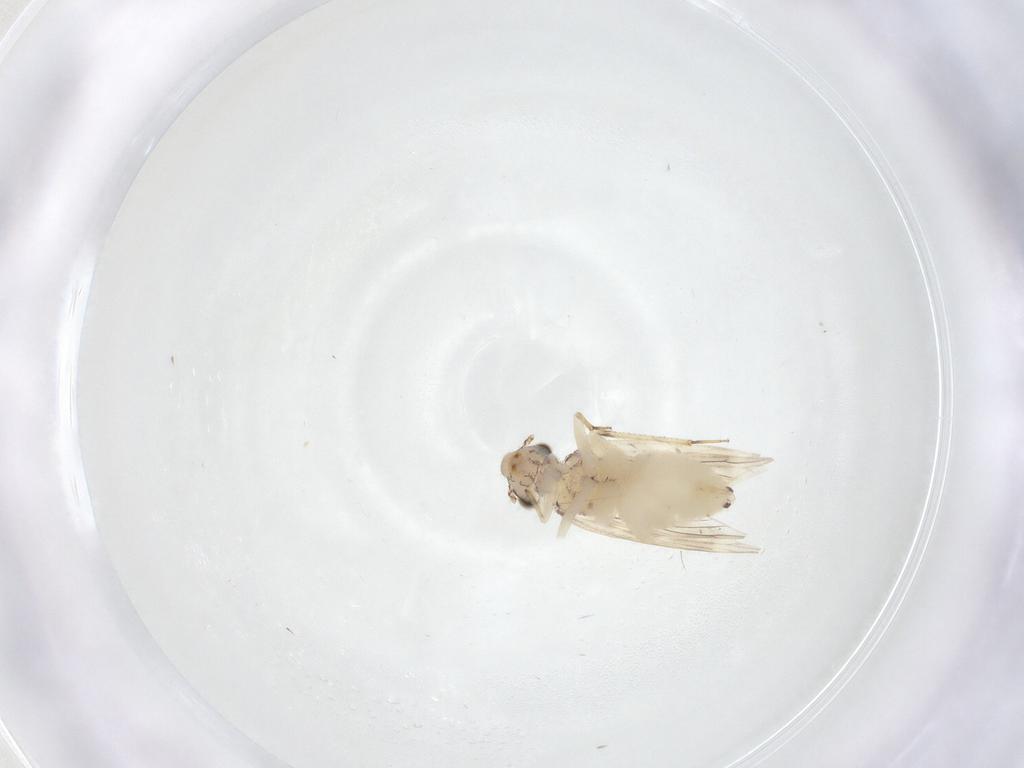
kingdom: Animalia
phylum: Arthropoda
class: Insecta
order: Psocodea
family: Lepidopsocidae
